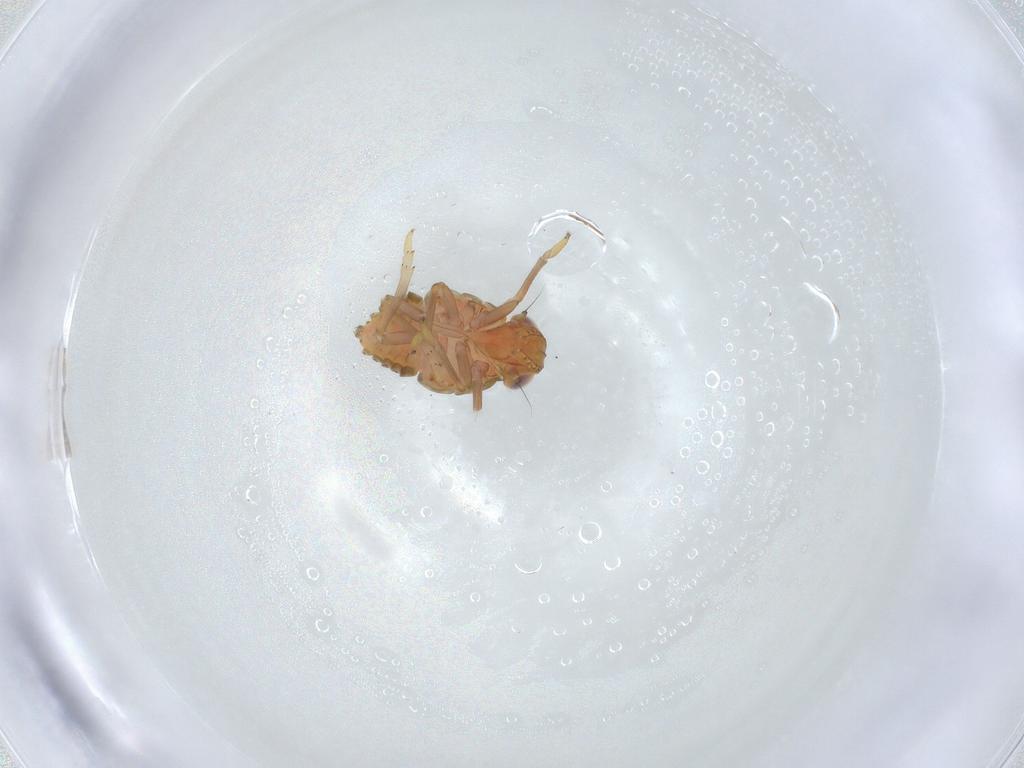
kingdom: Animalia
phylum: Arthropoda
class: Insecta
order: Hemiptera
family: Issidae
